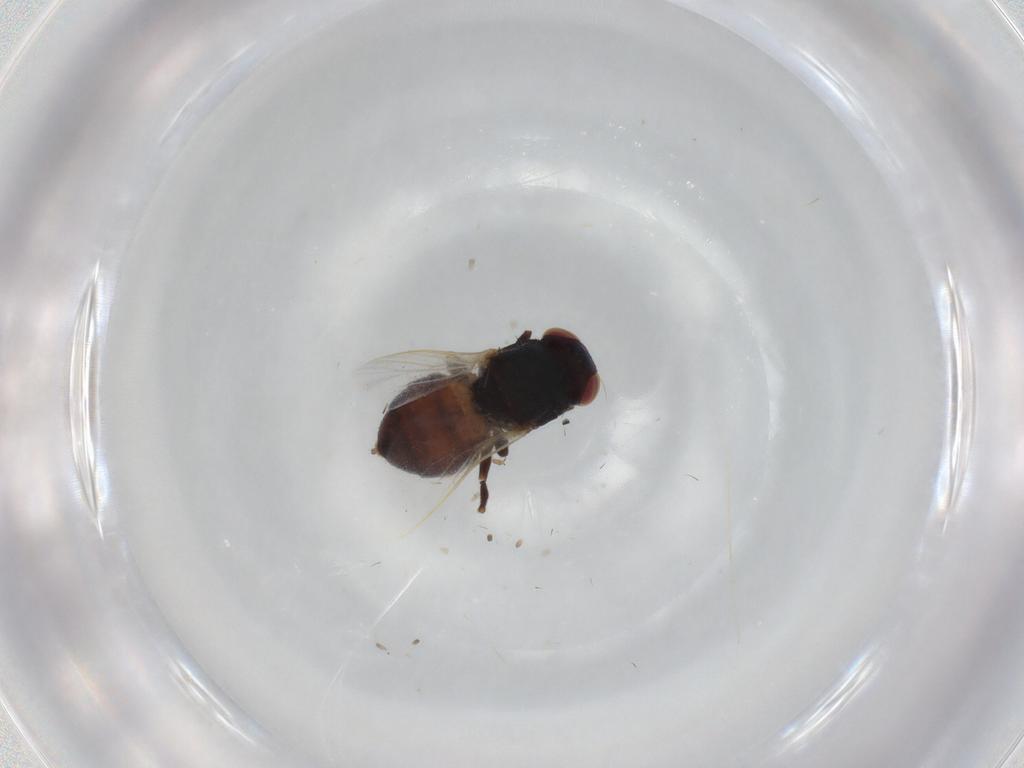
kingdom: Animalia
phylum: Arthropoda
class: Insecta
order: Diptera
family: Chloropidae
